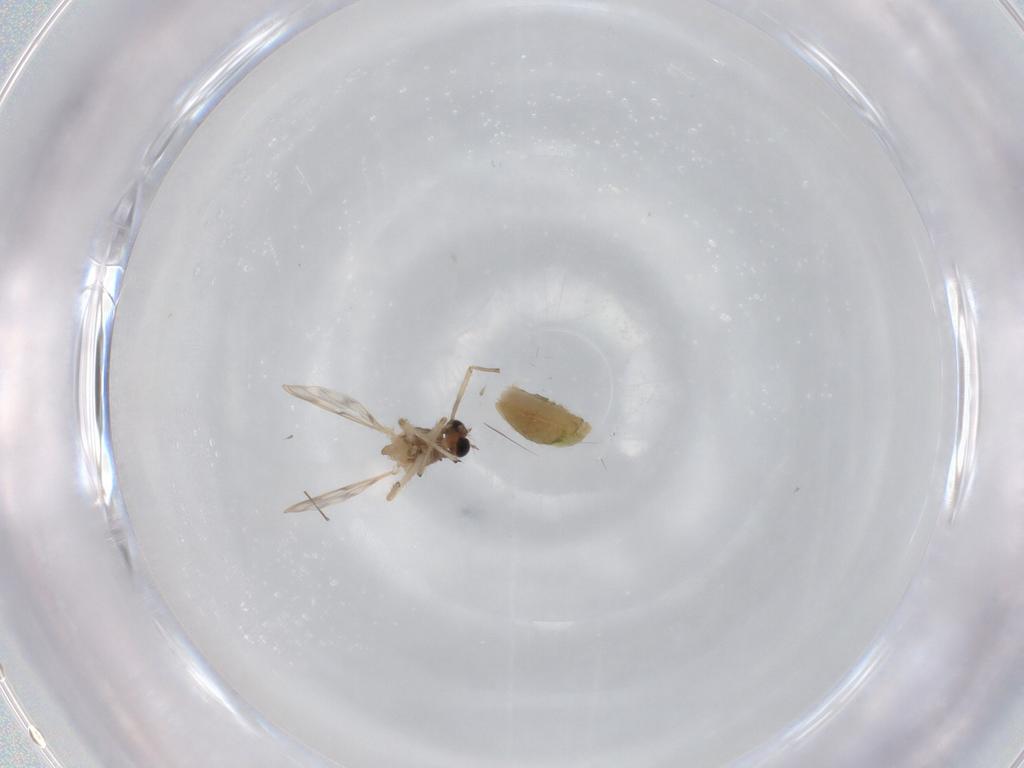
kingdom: Animalia
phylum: Arthropoda
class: Insecta
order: Diptera
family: Chironomidae
